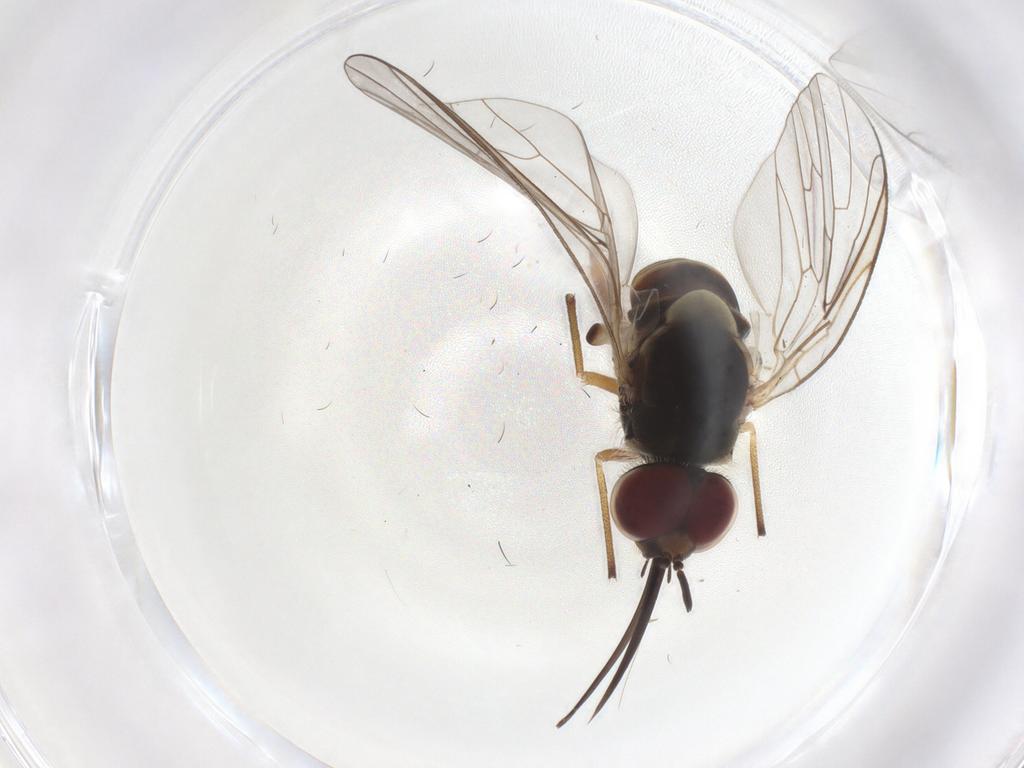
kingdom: Animalia
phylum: Arthropoda
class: Insecta
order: Diptera
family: Bombyliidae
